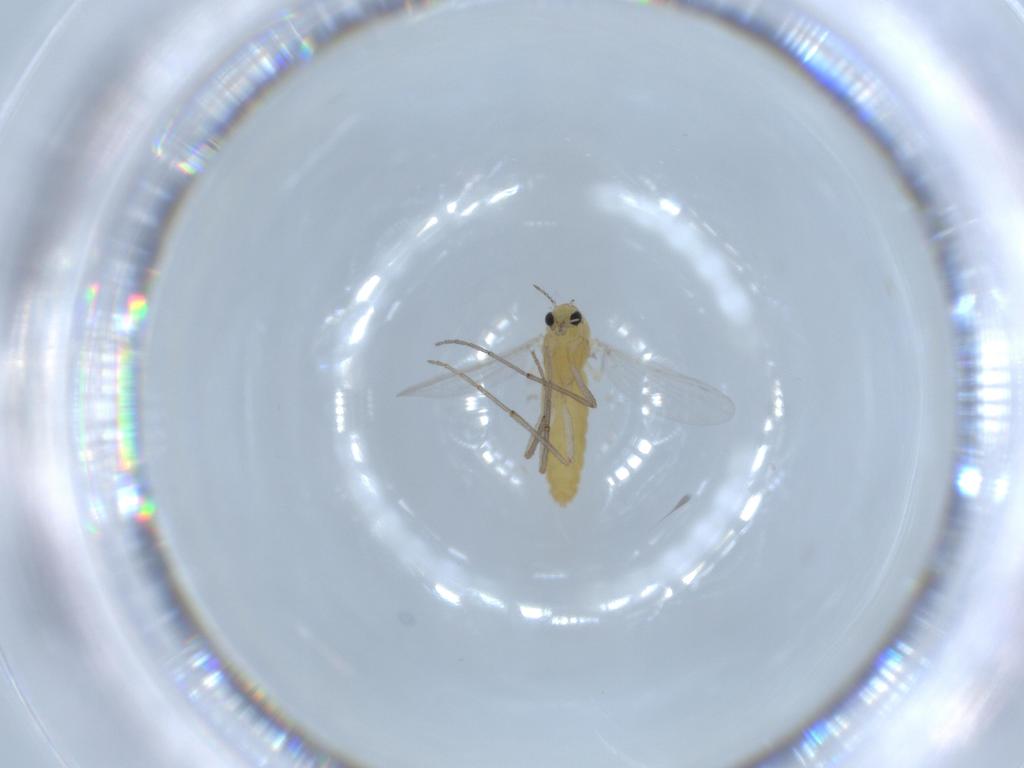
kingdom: Animalia
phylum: Arthropoda
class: Insecta
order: Diptera
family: Chironomidae
